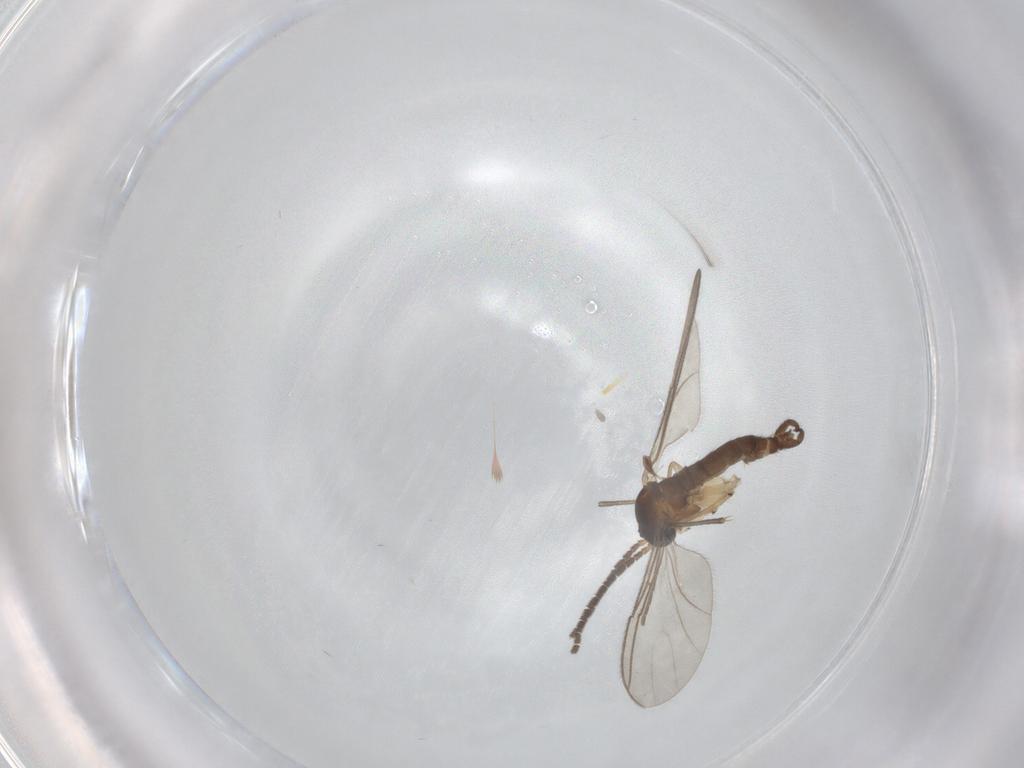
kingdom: Animalia
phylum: Arthropoda
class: Insecta
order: Diptera
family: Sciaridae
